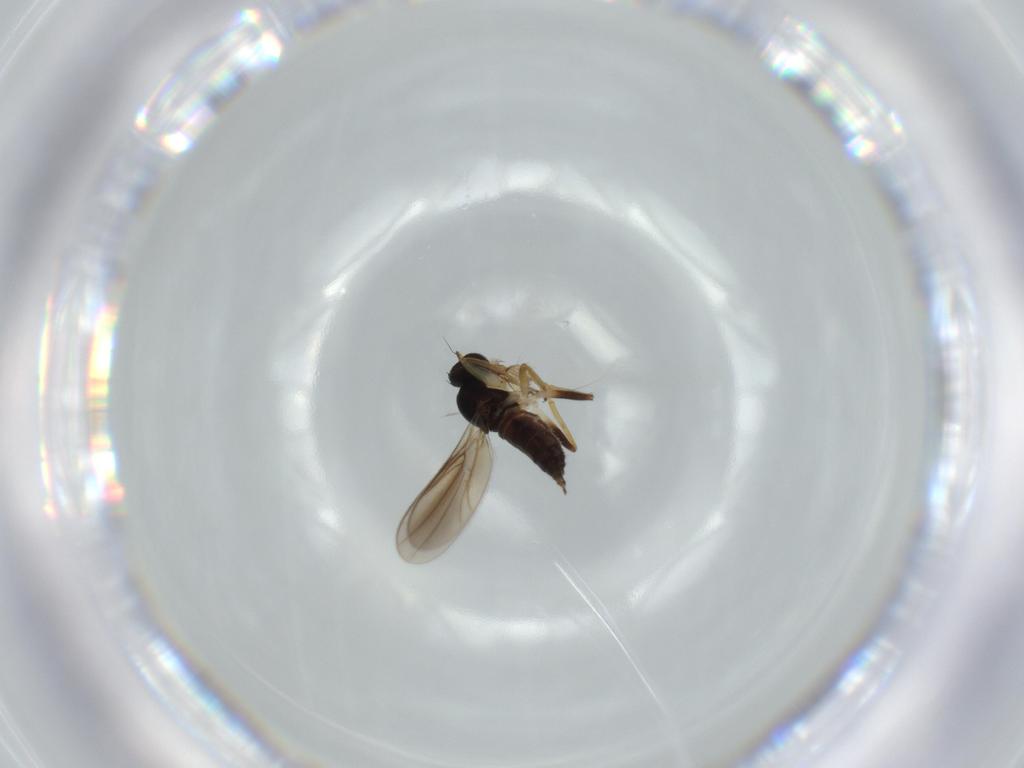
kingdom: Animalia
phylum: Arthropoda
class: Insecta
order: Diptera
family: Hybotidae
